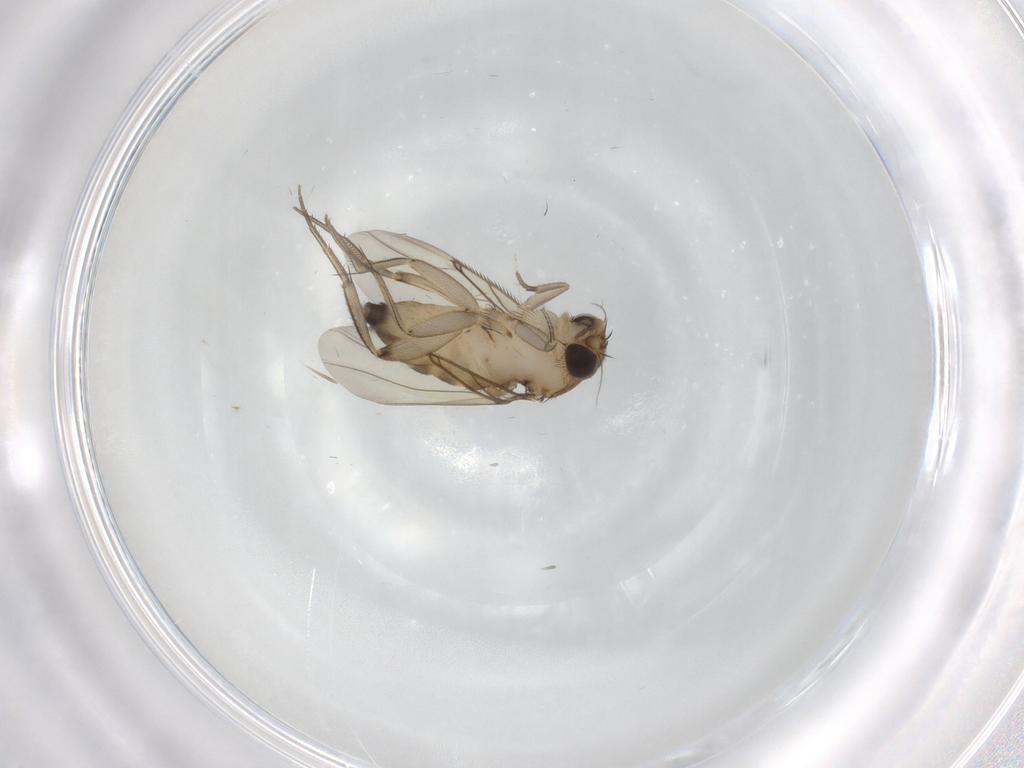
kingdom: Animalia
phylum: Arthropoda
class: Insecta
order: Diptera
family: Phoridae
